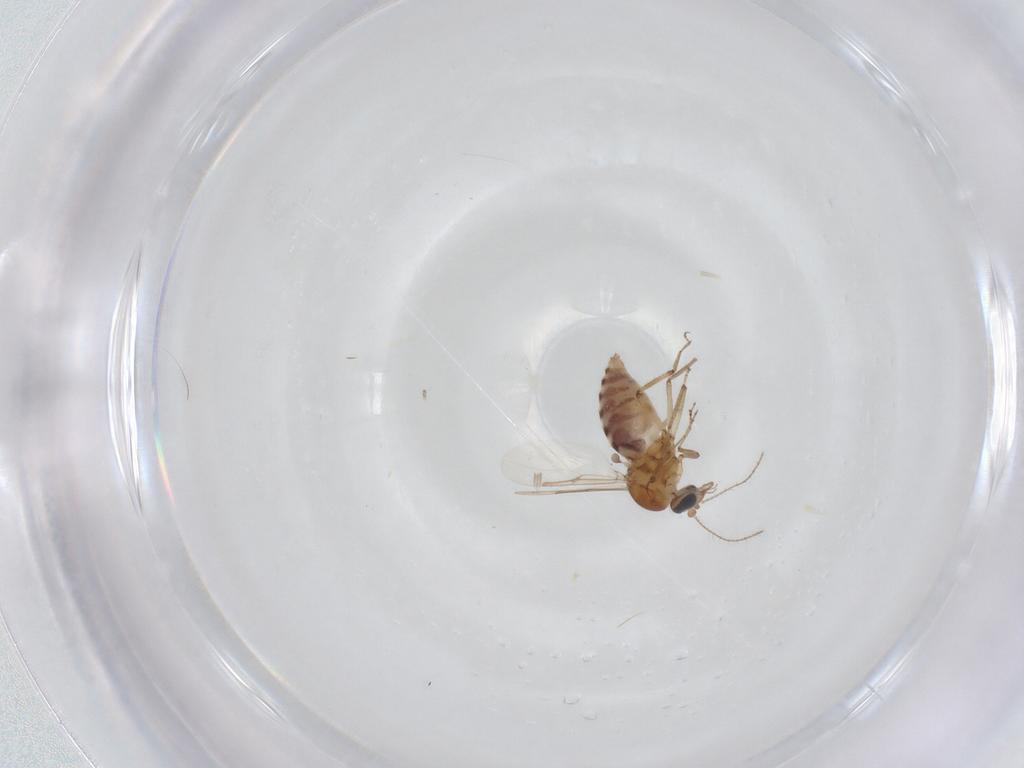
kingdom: Animalia
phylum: Arthropoda
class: Insecta
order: Diptera
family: Ceratopogonidae
